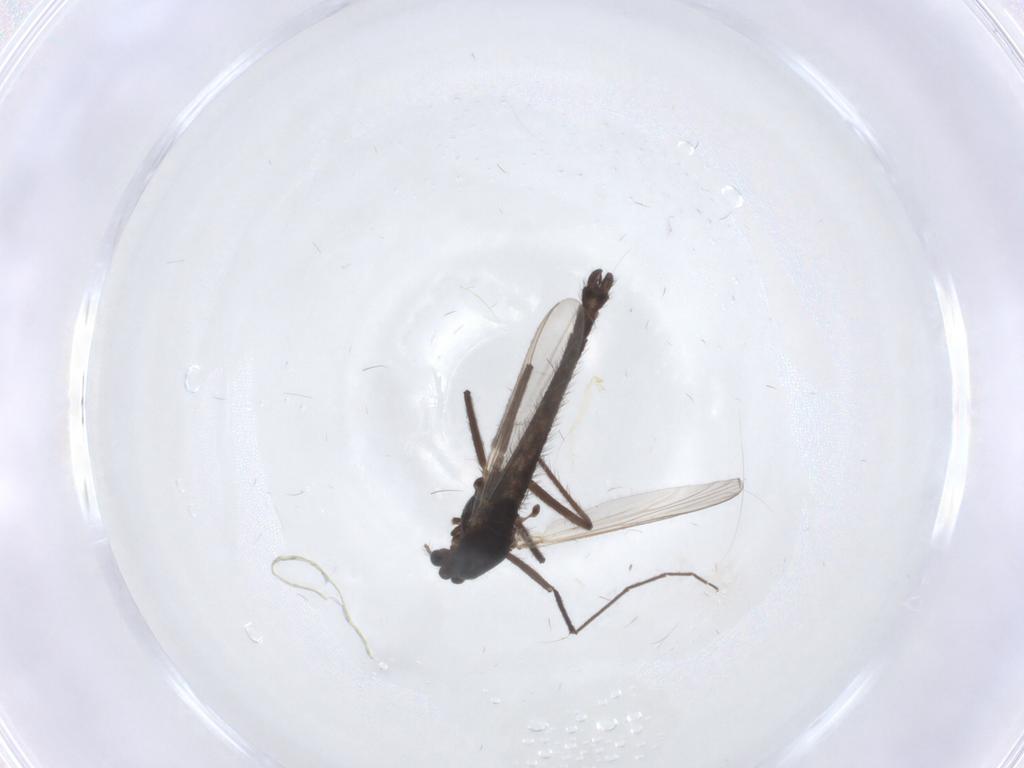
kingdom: Animalia
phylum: Arthropoda
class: Insecta
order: Diptera
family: Chironomidae
